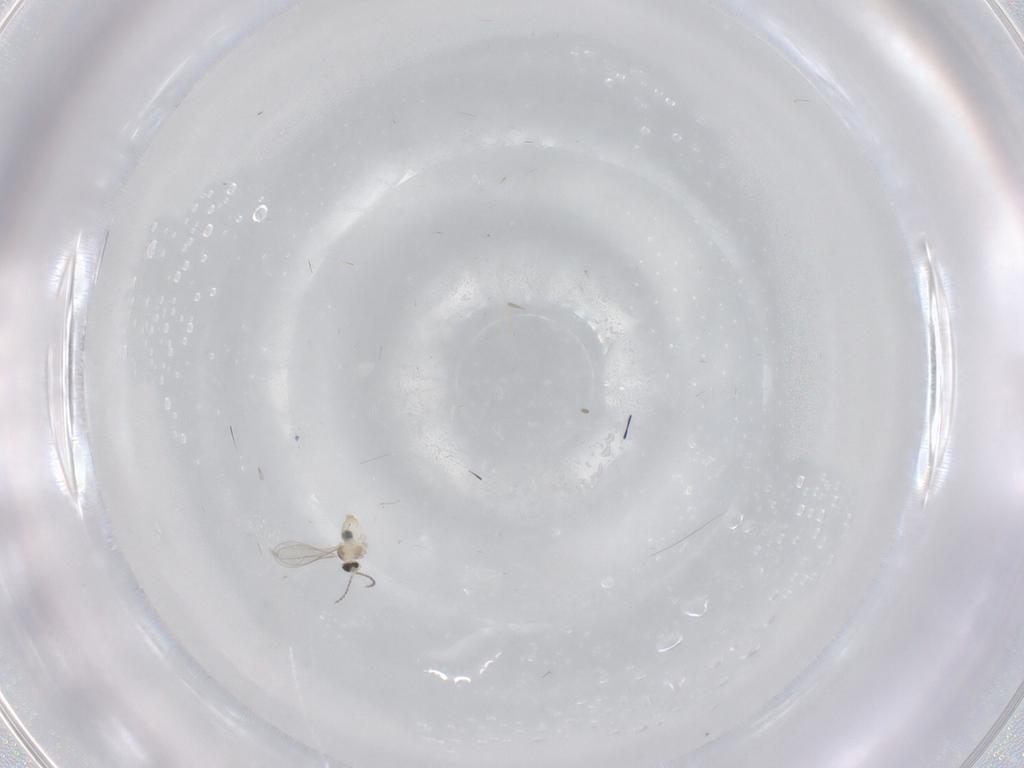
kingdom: Animalia
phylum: Arthropoda
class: Insecta
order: Diptera
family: Cecidomyiidae
